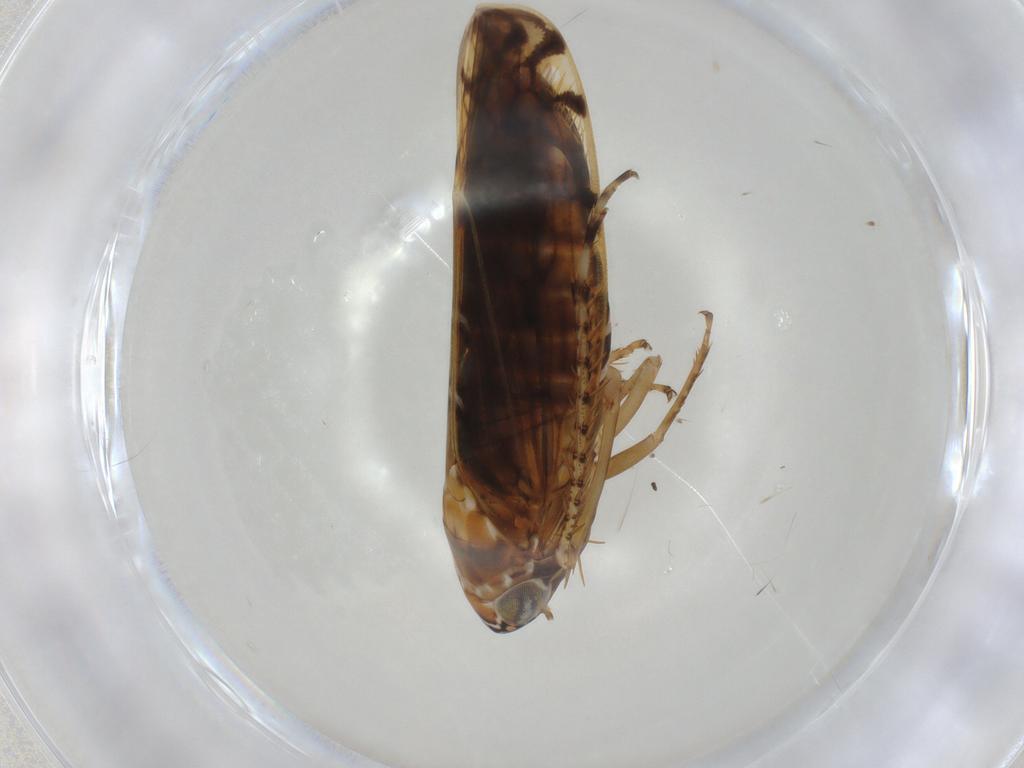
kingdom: Animalia
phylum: Arthropoda
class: Insecta
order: Hemiptera
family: Cicadellidae
